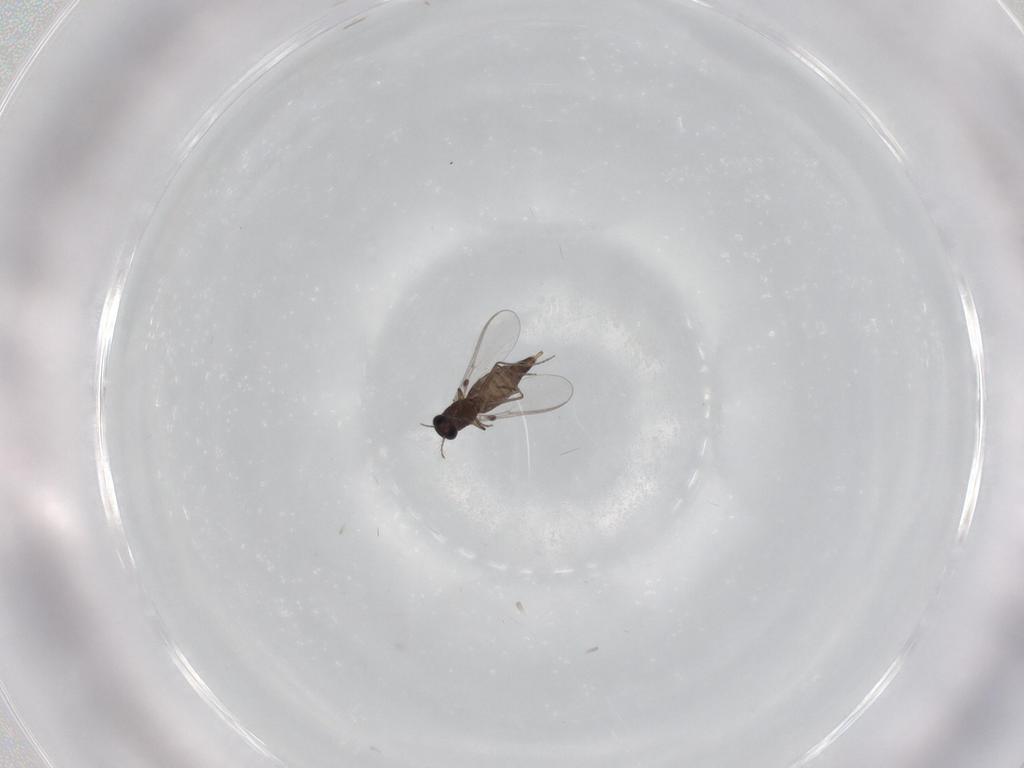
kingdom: Animalia
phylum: Arthropoda
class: Insecta
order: Diptera
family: Chironomidae
